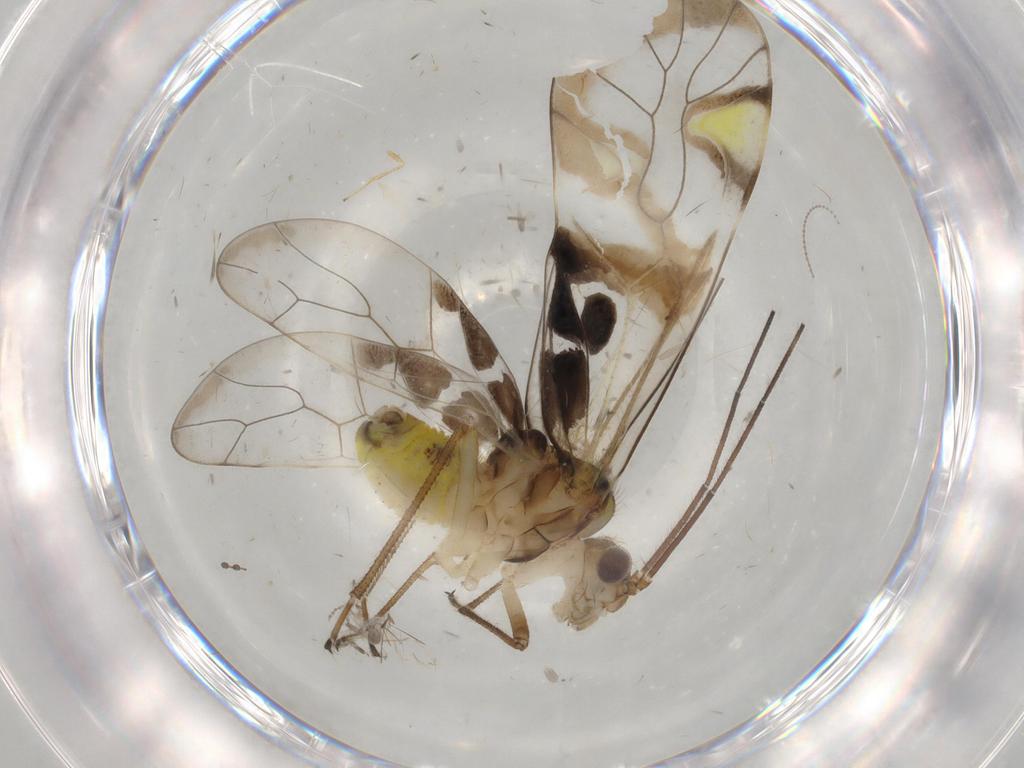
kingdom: Animalia
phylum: Arthropoda
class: Insecta
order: Psocodea
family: Amphipsocidae
